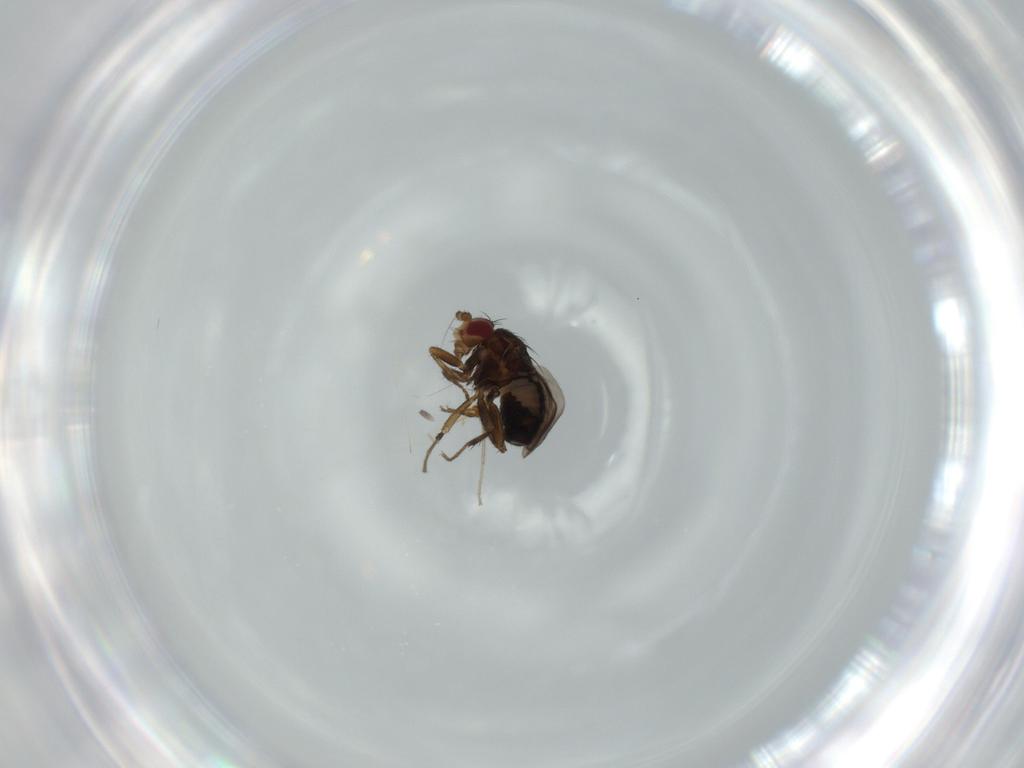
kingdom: Animalia
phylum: Arthropoda
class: Insecta
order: Diptera
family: Chironomidae
